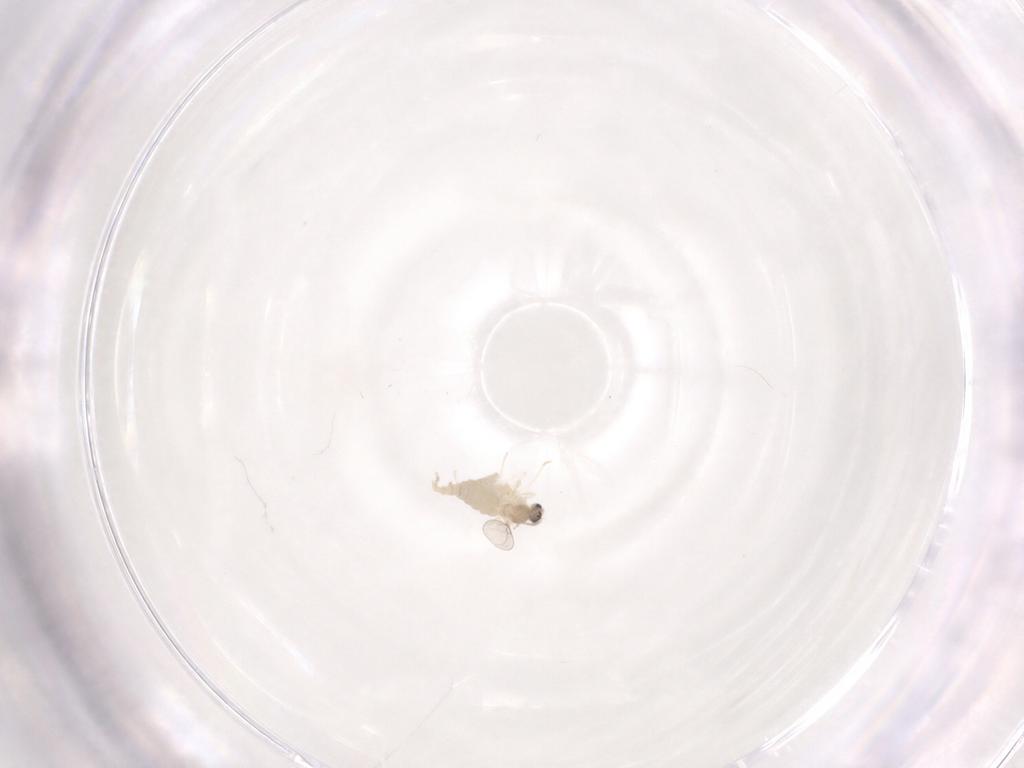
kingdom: Animalia
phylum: Arthropoda
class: Insecta
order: Diptera
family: Cecidomyiidae
